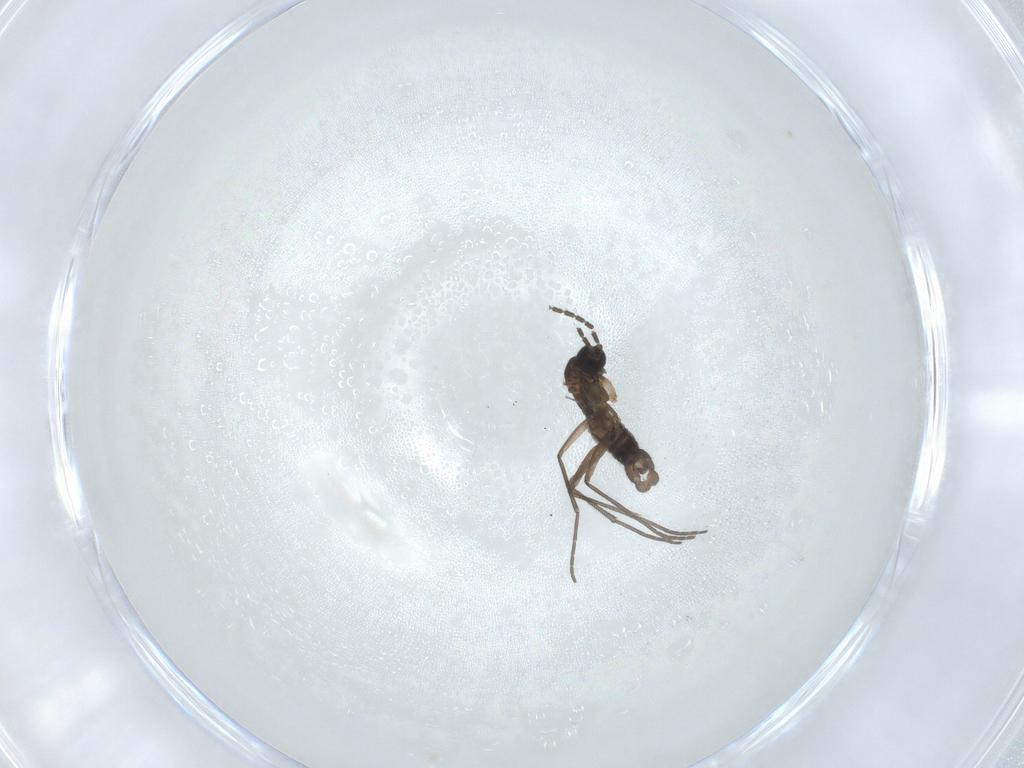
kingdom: Animalia
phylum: Arthropoda
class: Insecta
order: Diptera
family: Sciaridae
